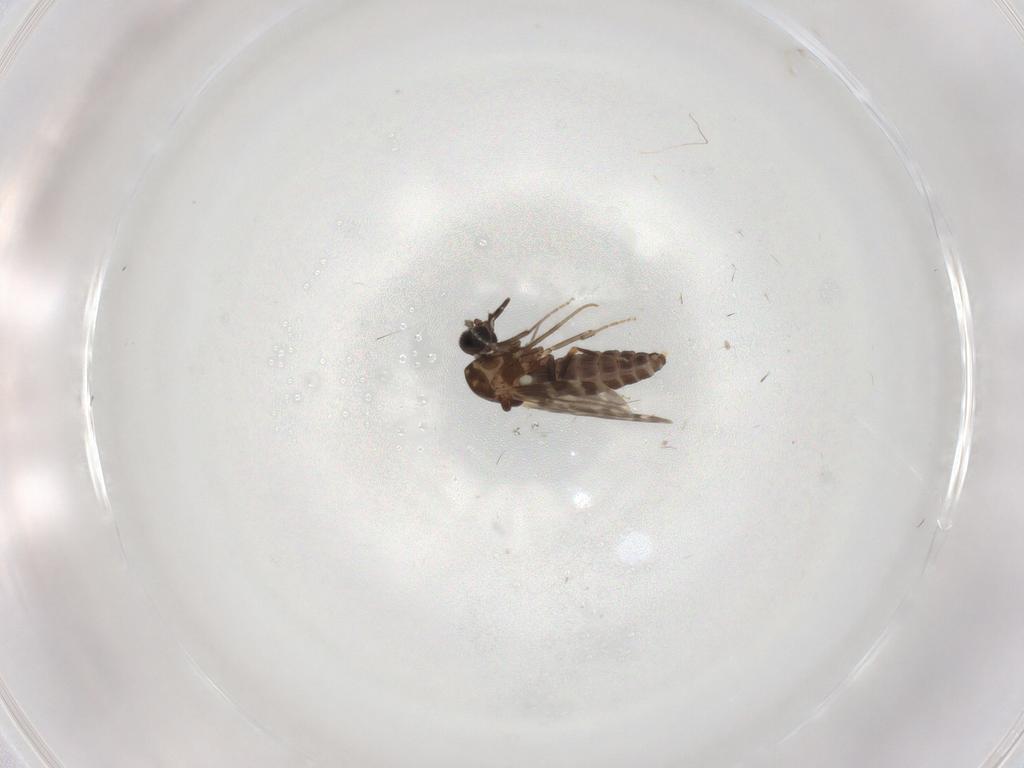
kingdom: Animalia
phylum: Arthropoda
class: Insecta
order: Diptera
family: Ceratopogonidae
